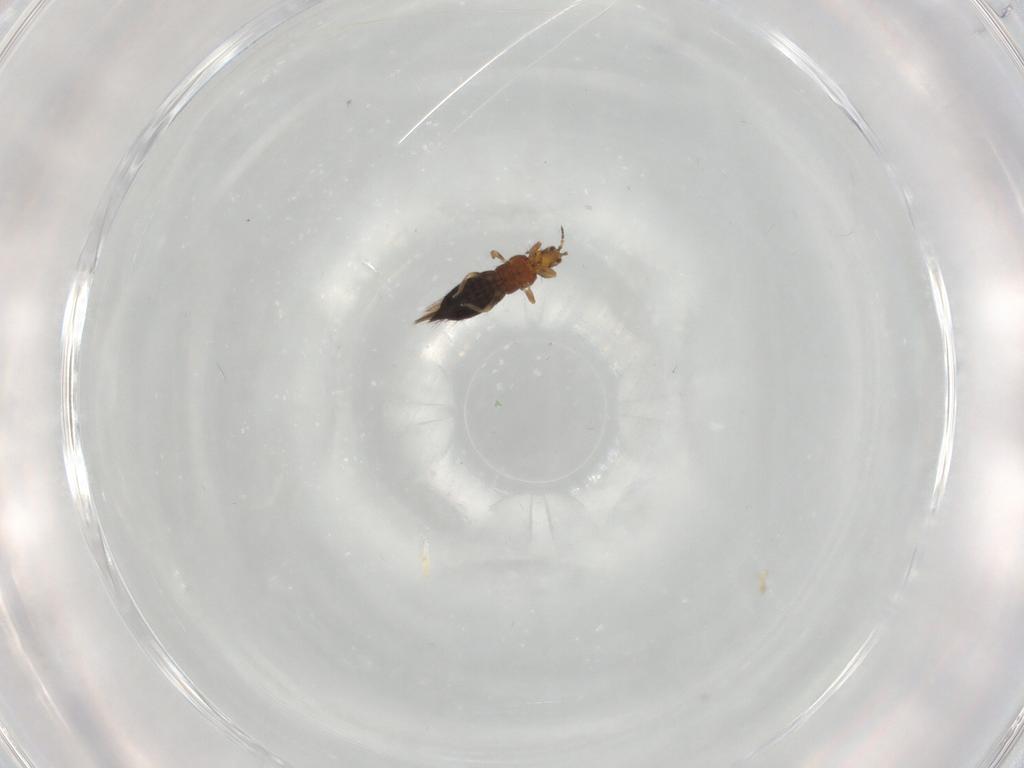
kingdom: Animalia
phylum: Arthropoda
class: Insecta
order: Thysanoptera
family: Thripidae
